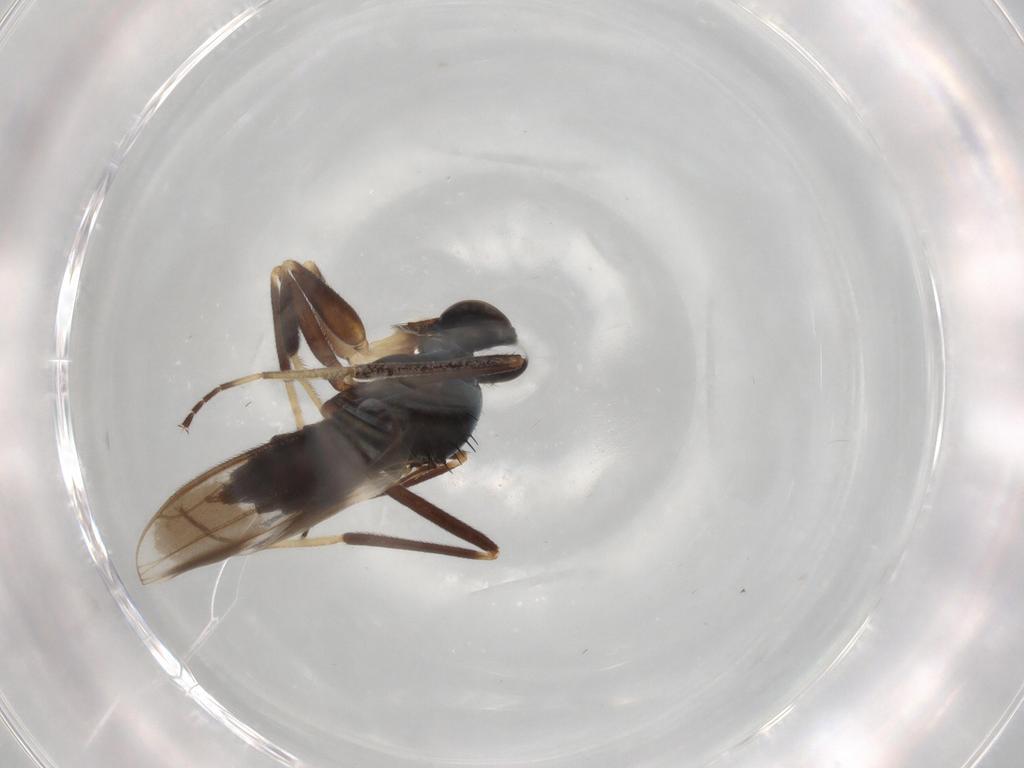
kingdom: Animalia
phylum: Arthropoda
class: Insecta
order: Diptera
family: Hybotidae
